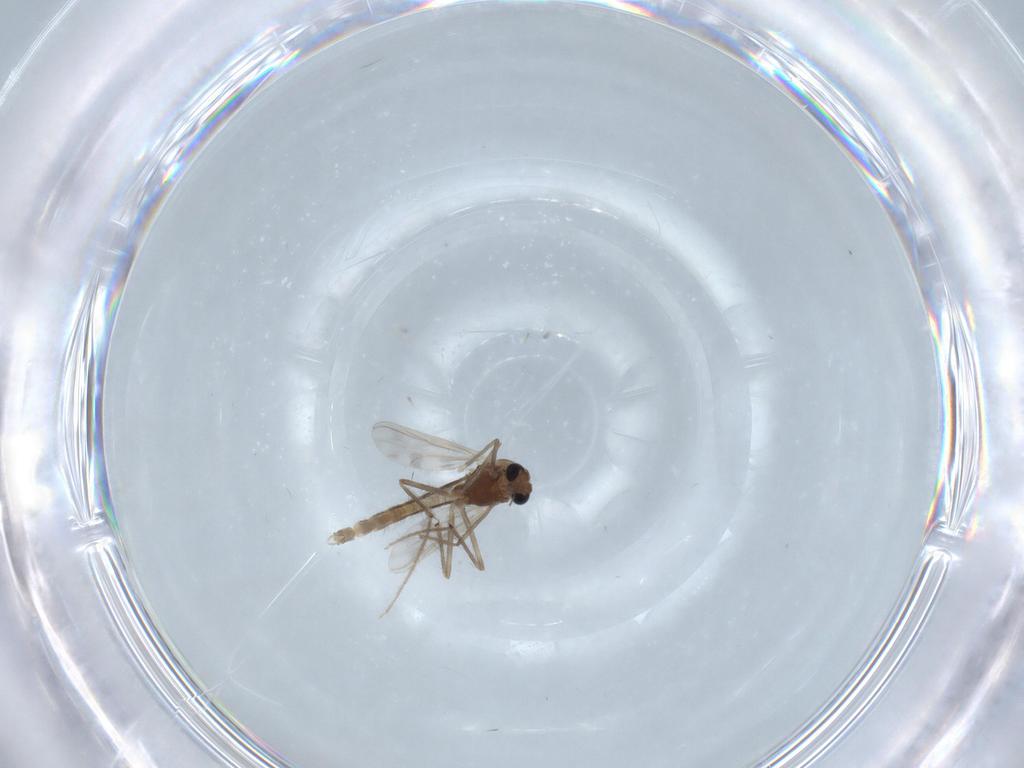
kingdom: Animalia
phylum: Arthropoda
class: Insecta
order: Diptera
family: Chironomidae
